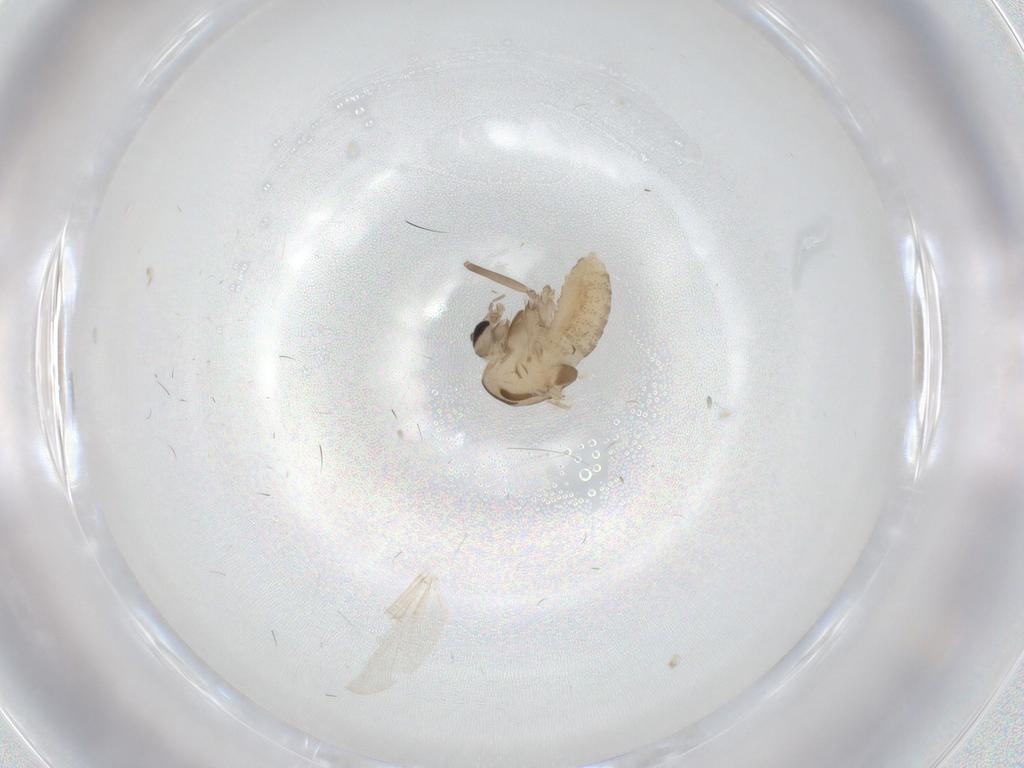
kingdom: Animalia
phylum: Arthropoda
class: Insecta
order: Diptera
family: Chironomidae
